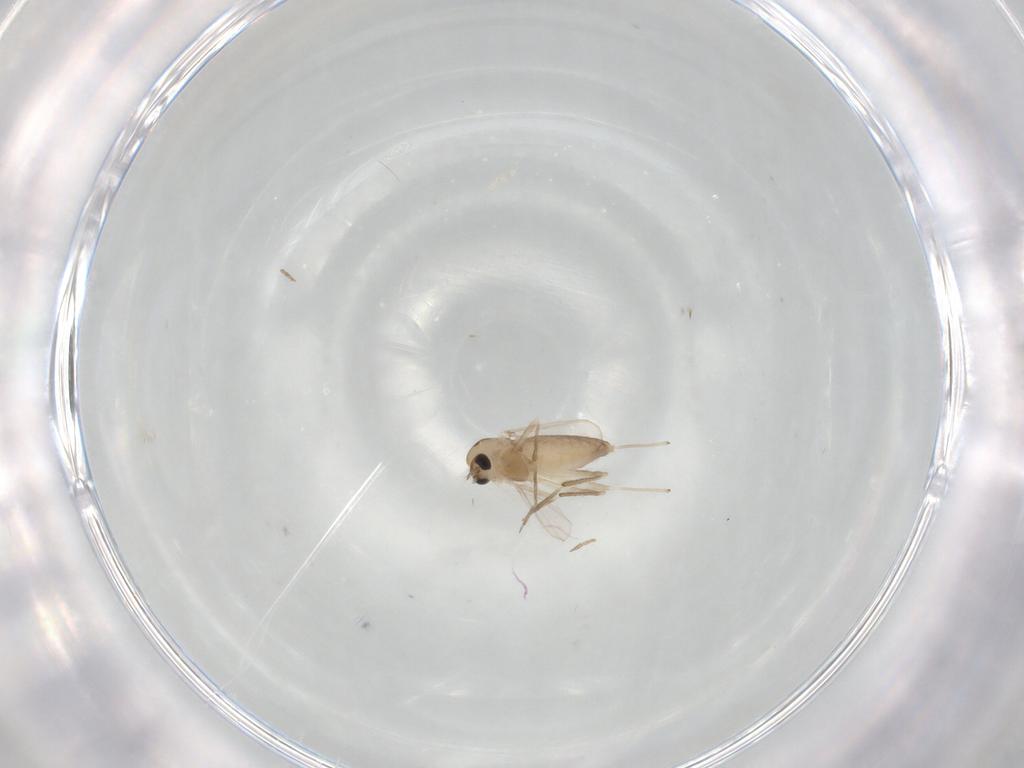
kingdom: Animalia
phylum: Arthropoda
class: Insecta
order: Diptera
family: Chironomidae
